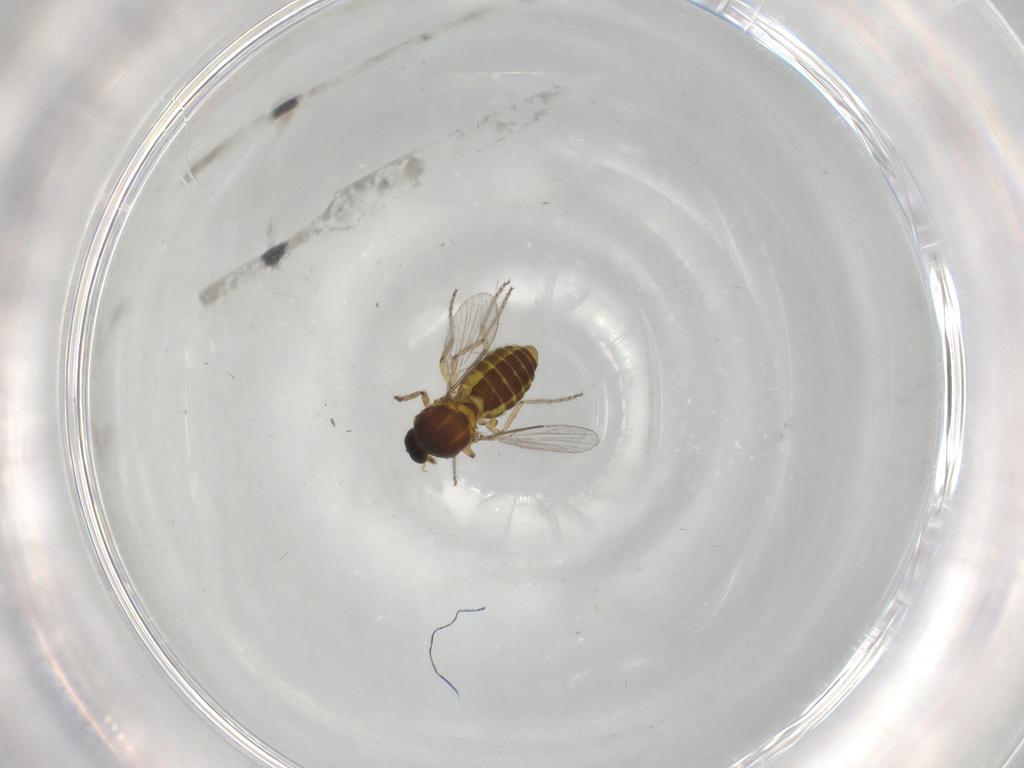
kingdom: Animalia
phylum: Arthropoda
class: Insecta
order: Diptera
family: Ceratopogonidae
